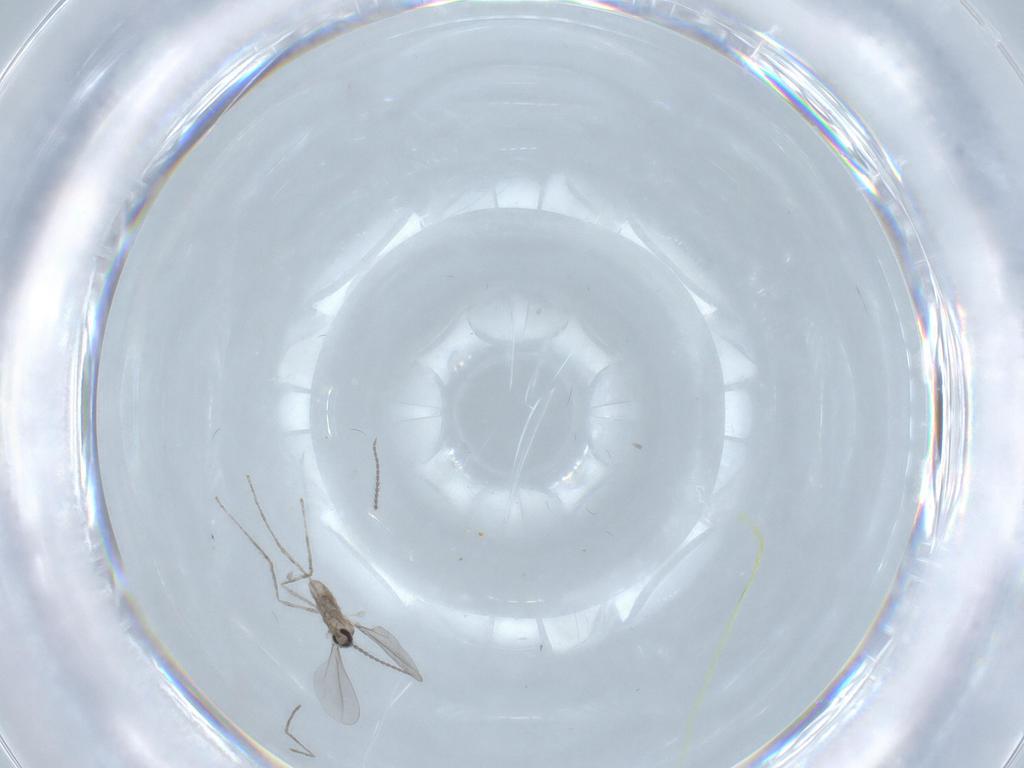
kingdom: Animalia
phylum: Arthropoda
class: Insecta
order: Diptera
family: Cecidomyiidae
